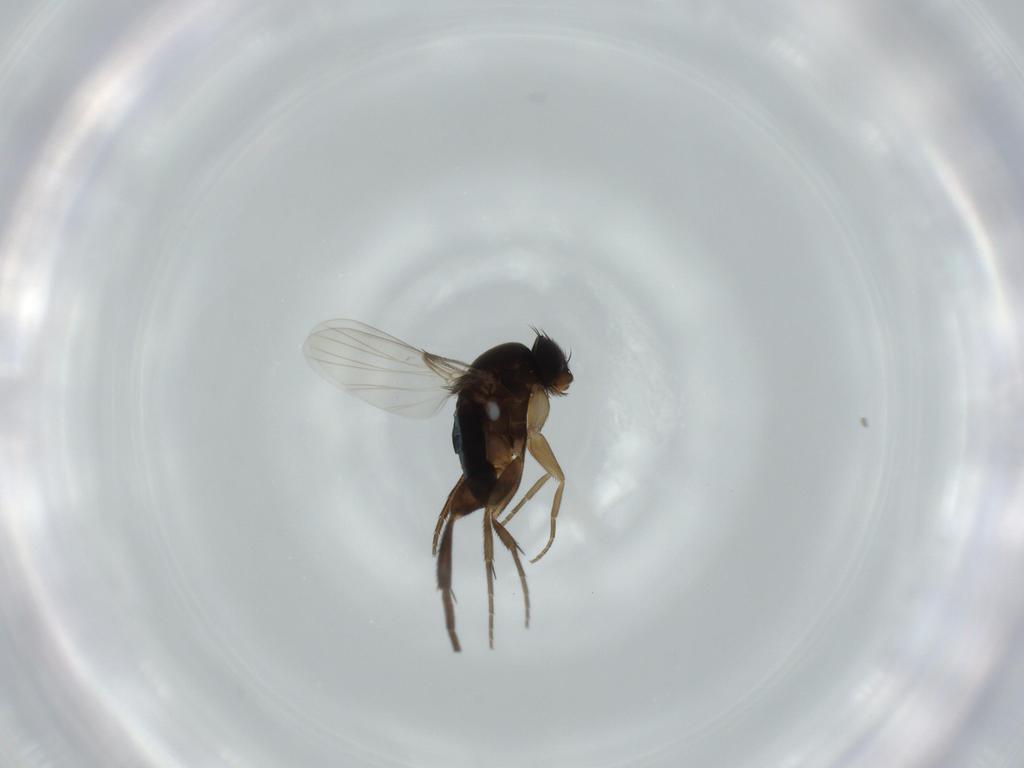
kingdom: Animalia
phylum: Arthropoda
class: Insecta
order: Diptera
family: Phoridae
